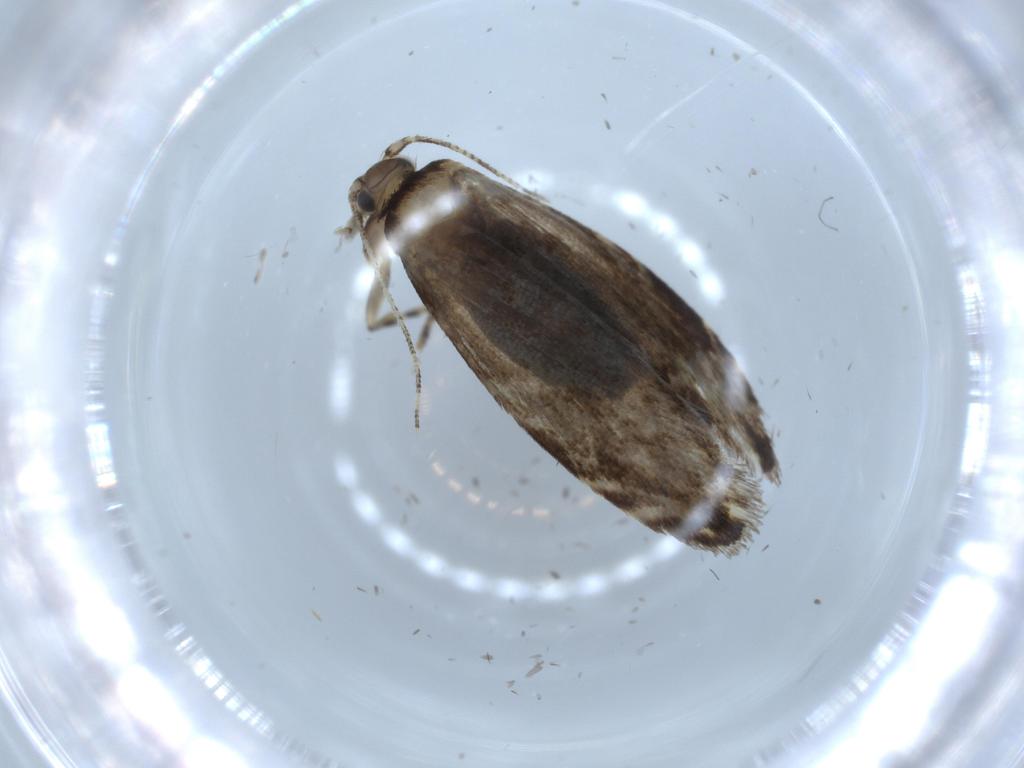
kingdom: Animalia
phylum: Arthropoda
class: Insecta
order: Lepidoptera
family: Tineidae
